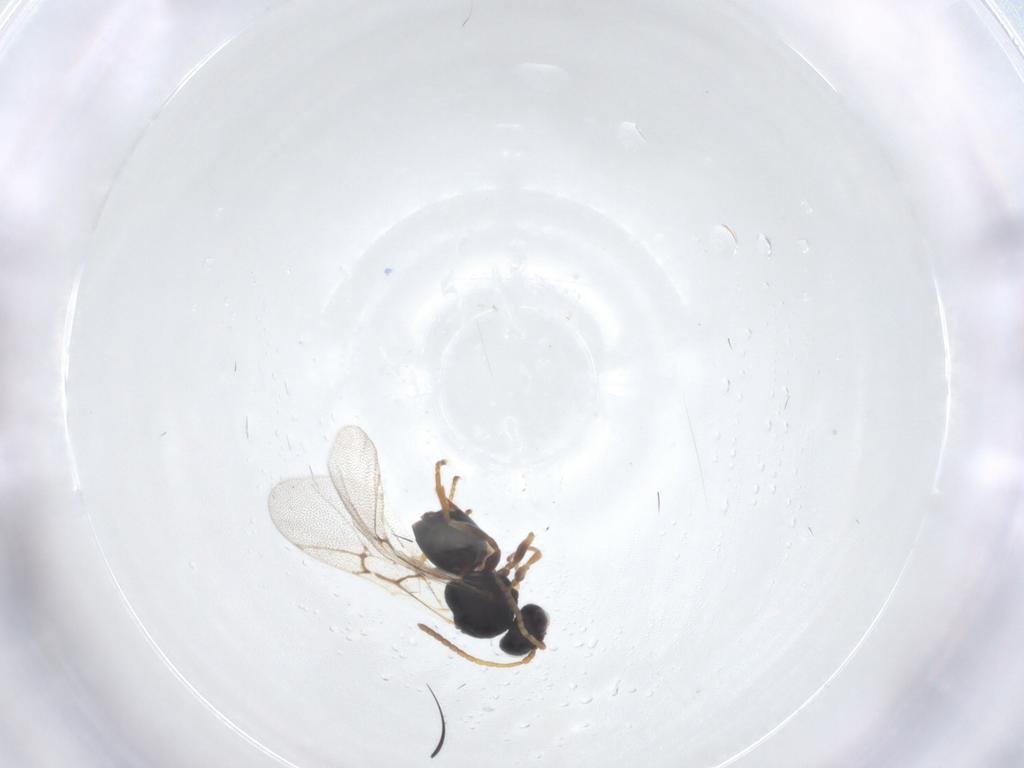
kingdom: Animalia
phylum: Arthropoda
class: Insecta
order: Hymenoptera
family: Cynipidae
